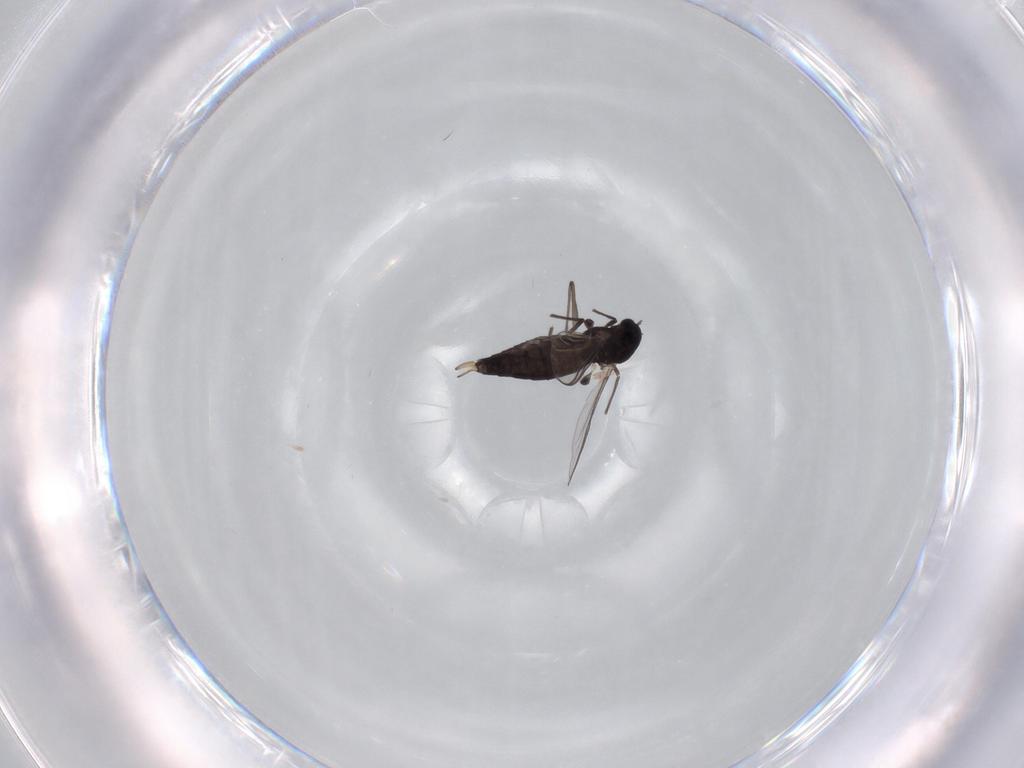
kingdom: Animalia
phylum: Arthropoda
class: Insecta
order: Diptera
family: Chironomidae
